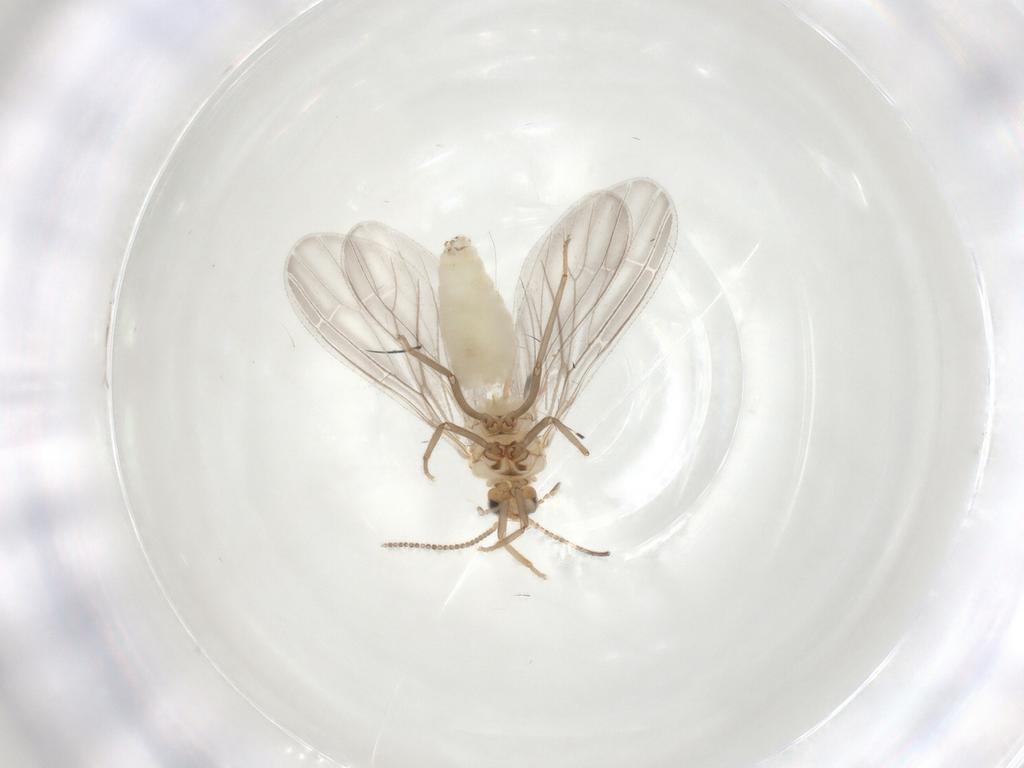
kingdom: Animalia
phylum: Arthropoda
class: Insecta
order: Neuroptera
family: Coniopterygidae
